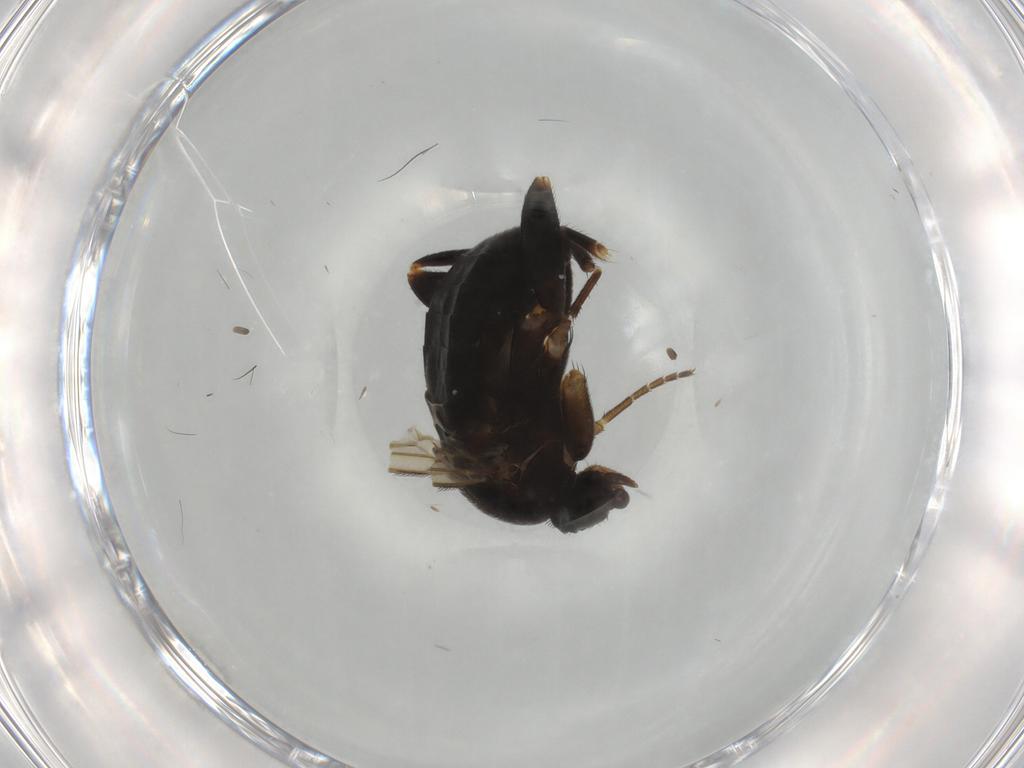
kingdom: Animalia
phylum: Arthropoda
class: Insecta
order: Diptera
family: Phoridae
